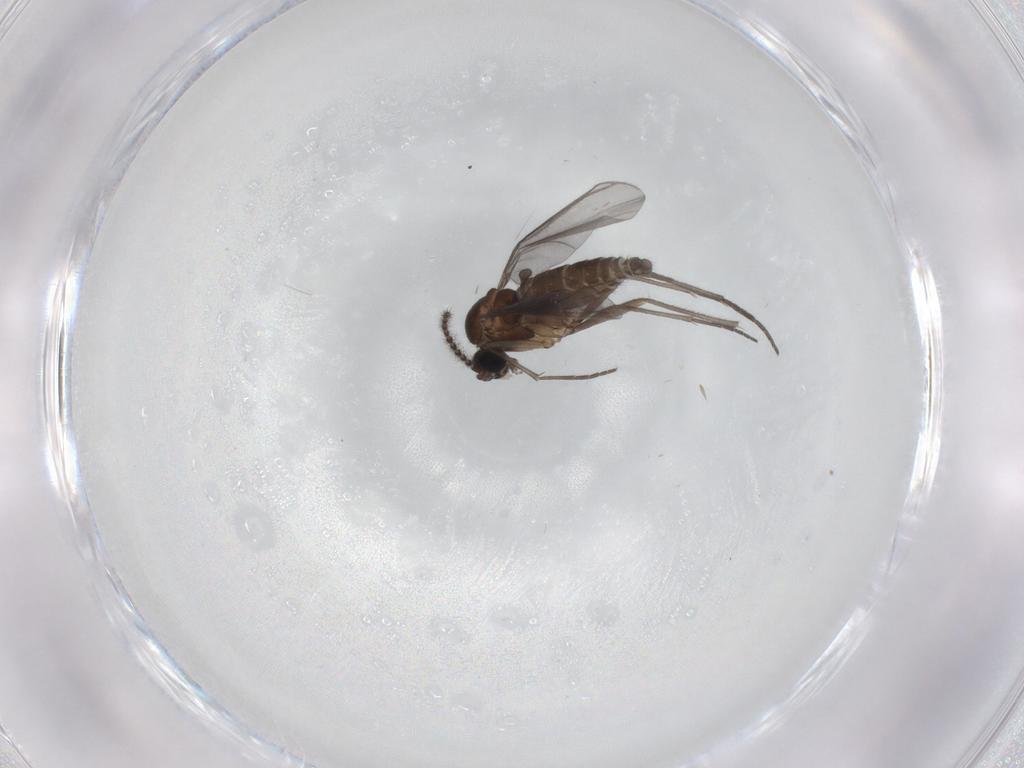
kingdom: Animalia
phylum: Arthropoda
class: Insecta
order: Diptera
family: Sciaridae
